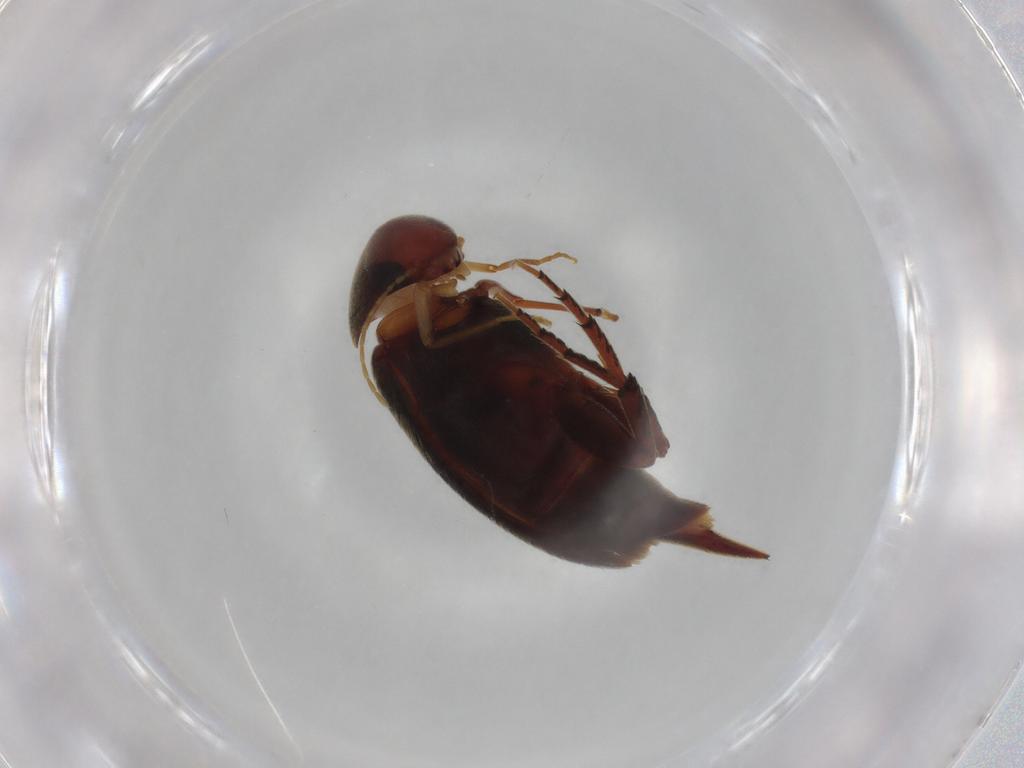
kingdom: Animalia
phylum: Arthropoda
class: Insecta
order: Coleoptera
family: Mordellidae
